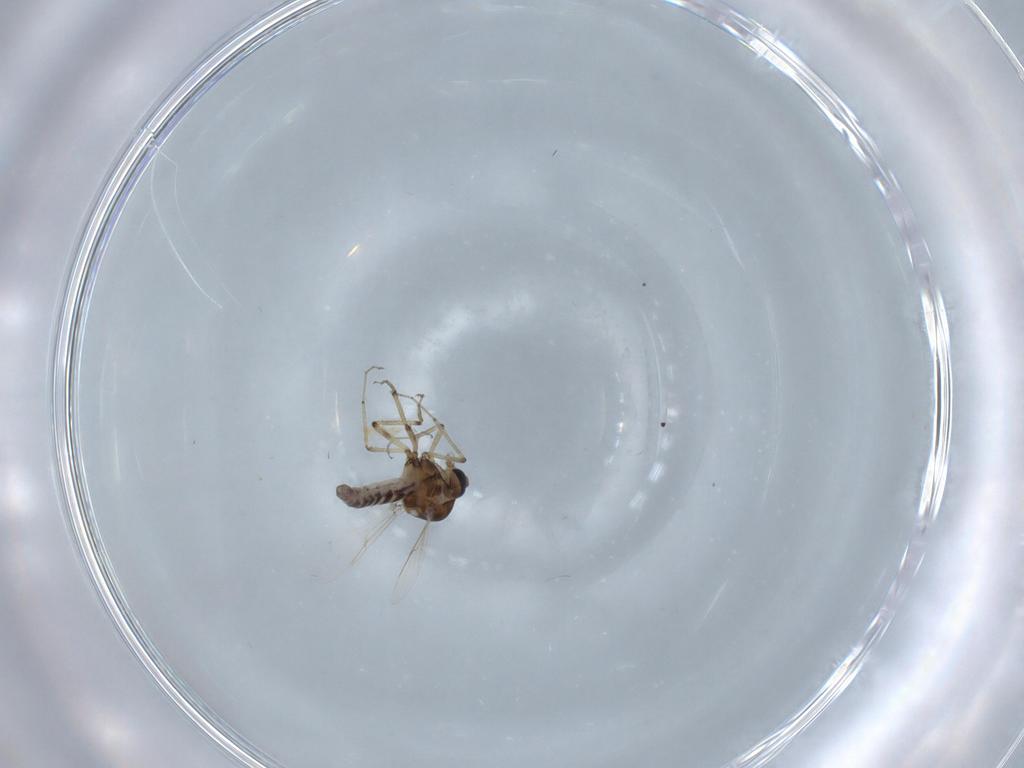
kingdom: Animalia
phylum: Arthropoda
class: Insecta
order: Diptera
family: Ceratopogonidae
